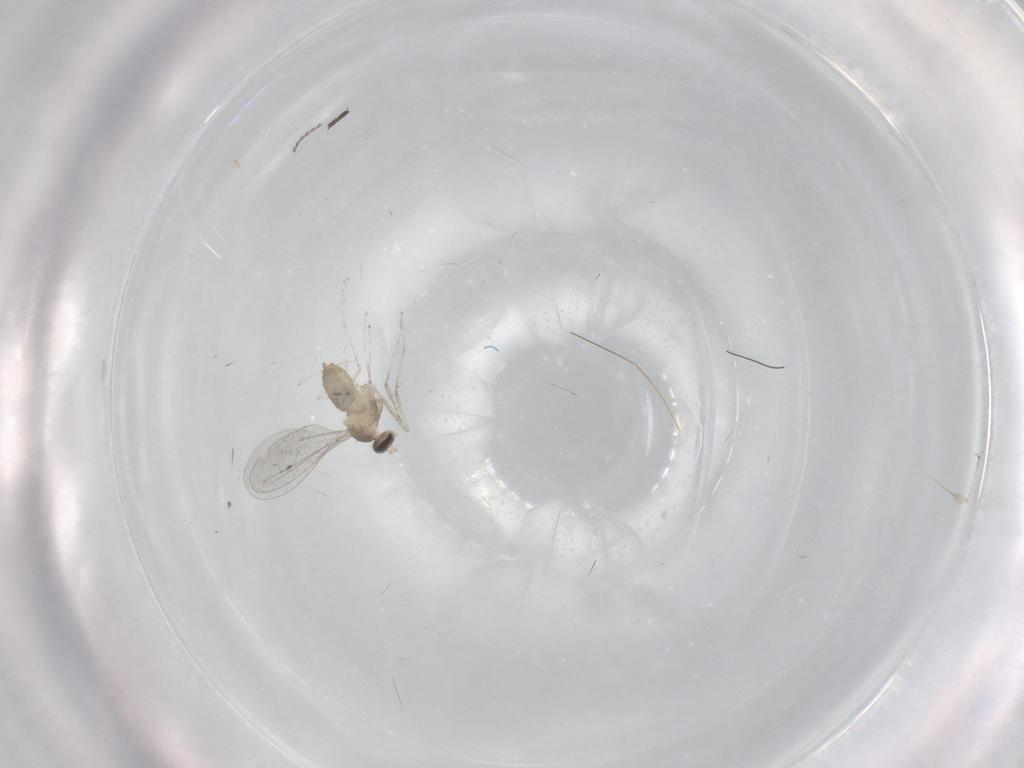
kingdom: Animalia
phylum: Arthropoda
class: Insecta
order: Diptera
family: Cecidomyiidae
